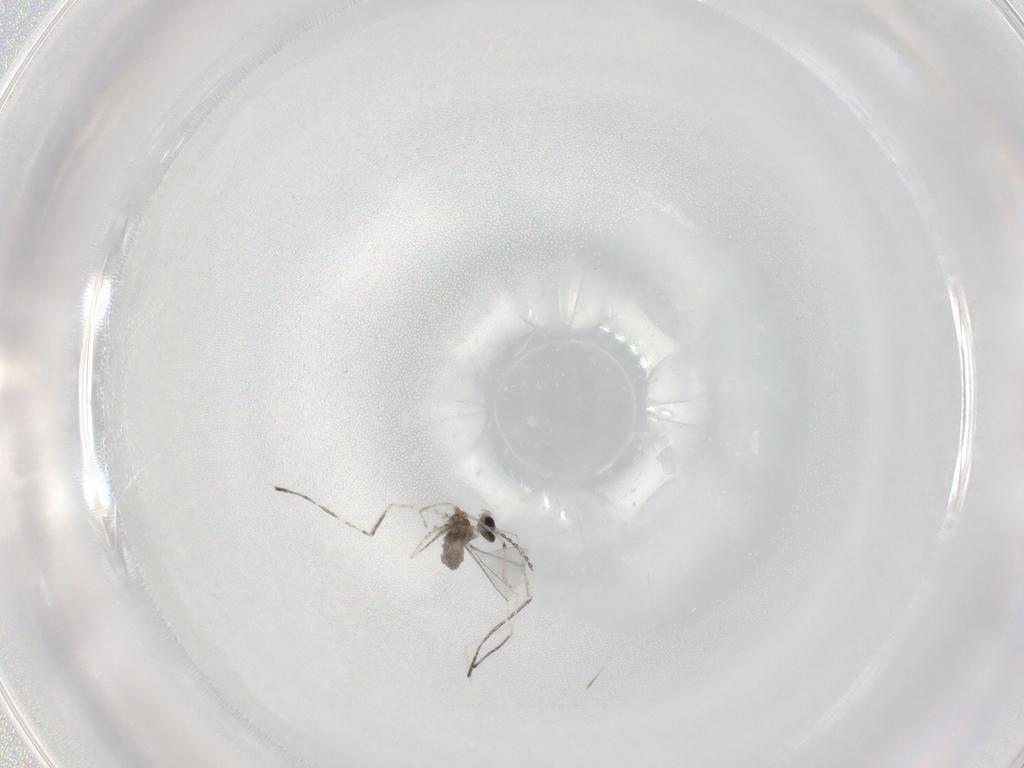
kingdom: Animalia
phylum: Arthropoda
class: Insecta
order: Diptera
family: Cecidomyiidae
